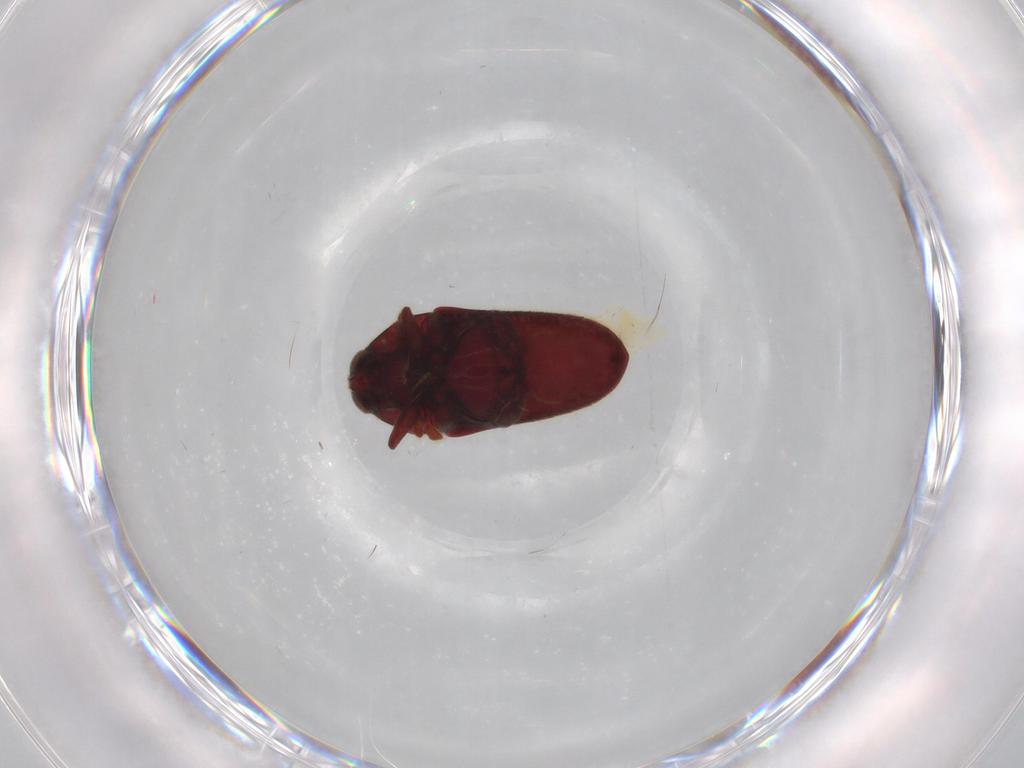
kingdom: Animalia
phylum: Arthropoda
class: Insecta
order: Coleoptera
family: Throscidae
